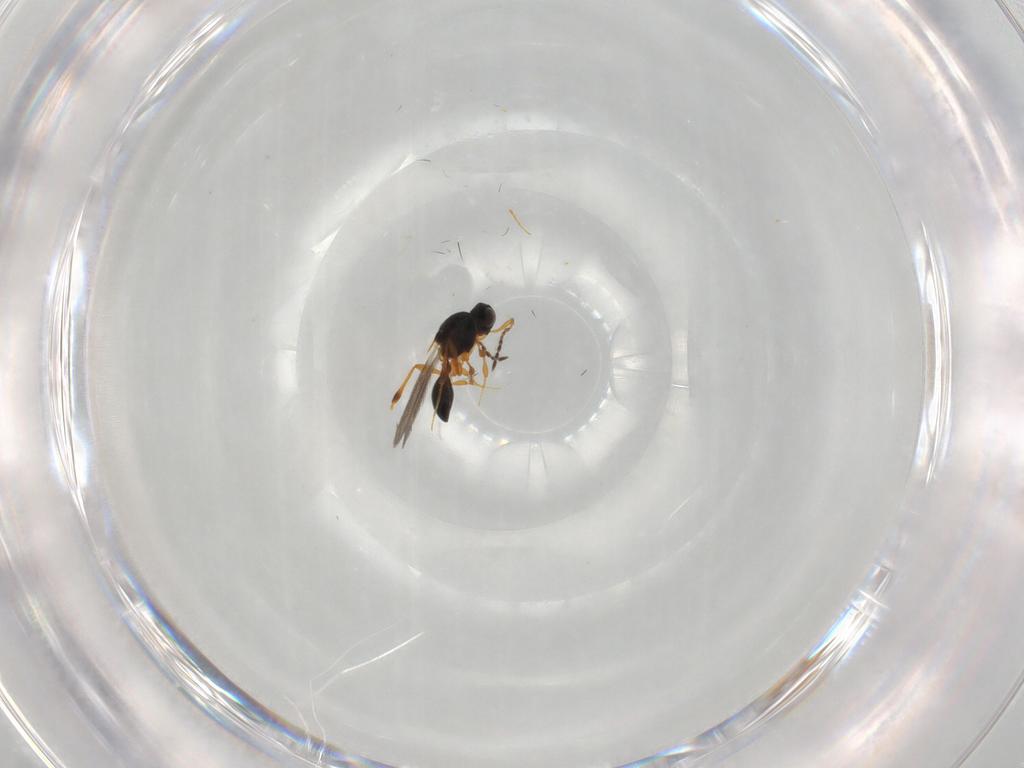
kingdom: Animalia
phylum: Arthropoda
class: Insecta
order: Hymenoptera
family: Platygastridae
